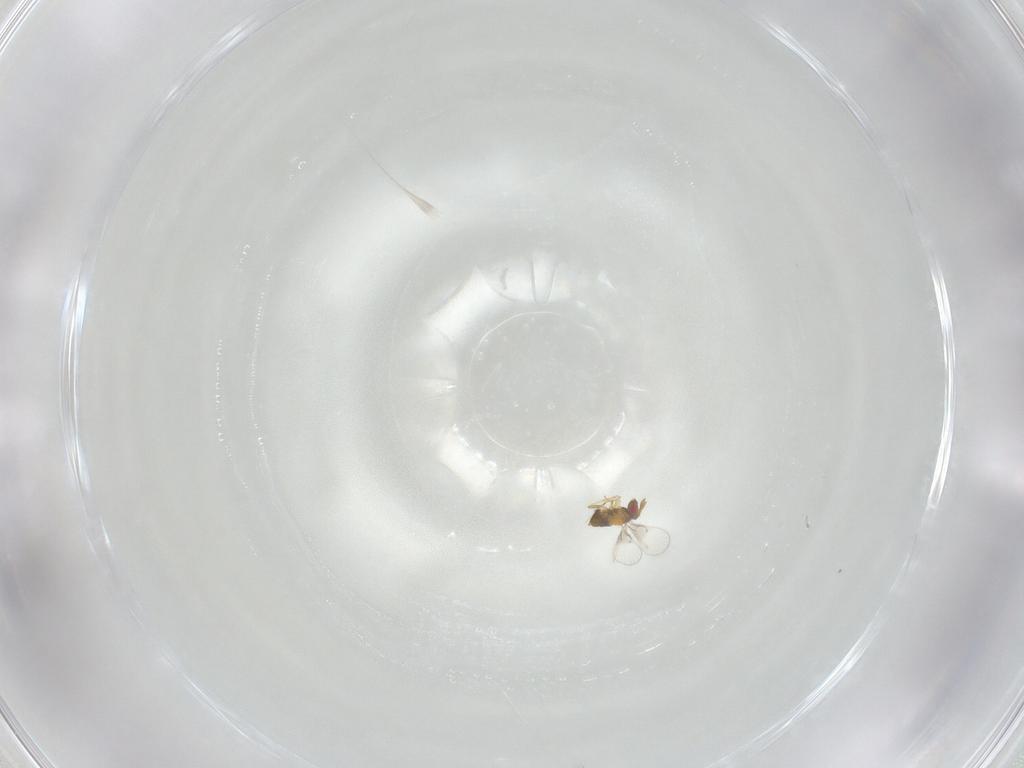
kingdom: Animalia
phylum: Arthropoda
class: Insecta
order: Hymenoptera
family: Trichogrammatidae
